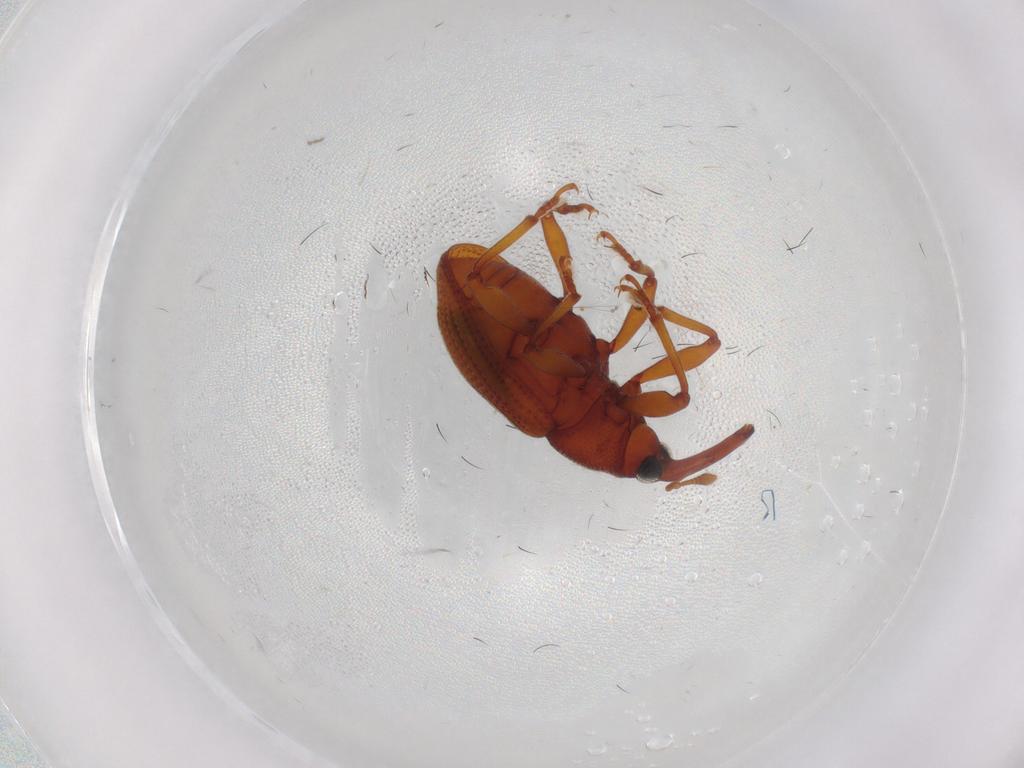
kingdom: Animalia
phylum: Arthropoda
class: Insecta
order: Coleoptera
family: Curculionidae
